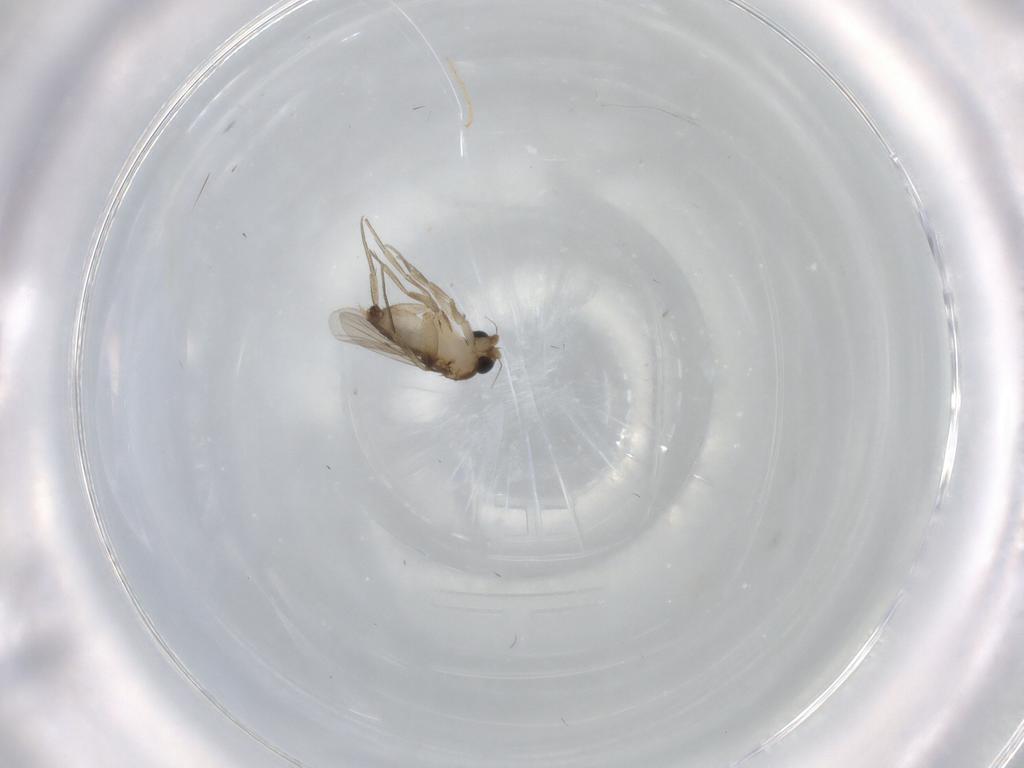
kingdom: Animalia
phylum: Arthropoda
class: Insecta
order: Diptera
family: Phoridae
